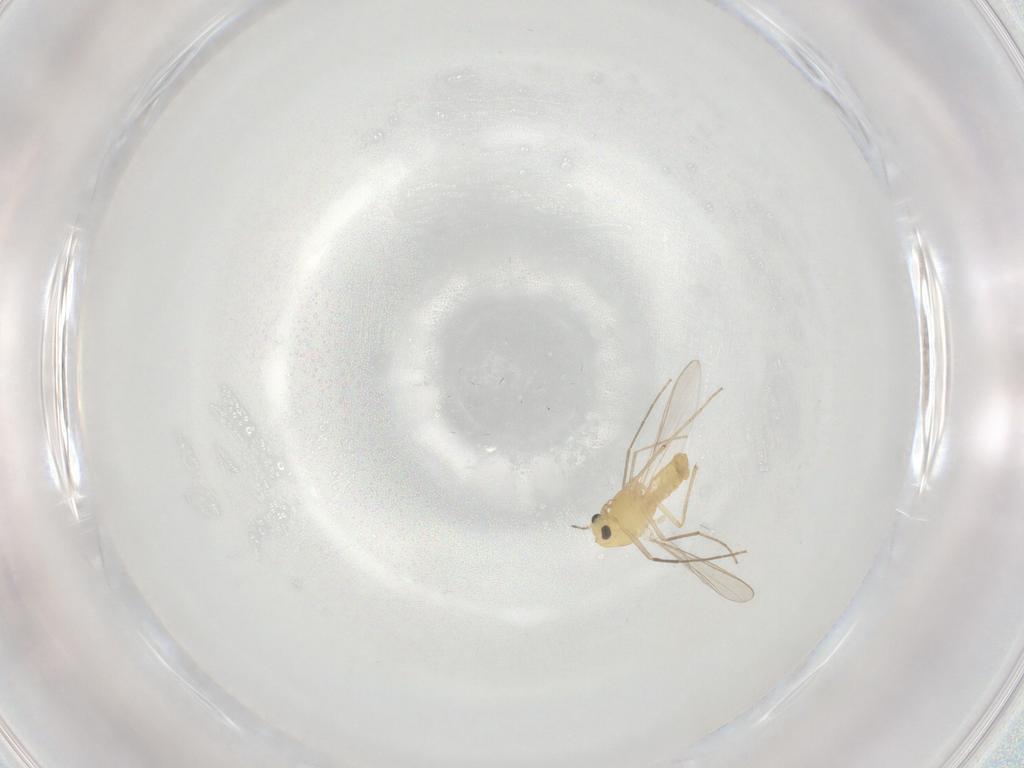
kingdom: Animalia
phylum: Arthropoda
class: Insecta
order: Diptera
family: Chironomidae
